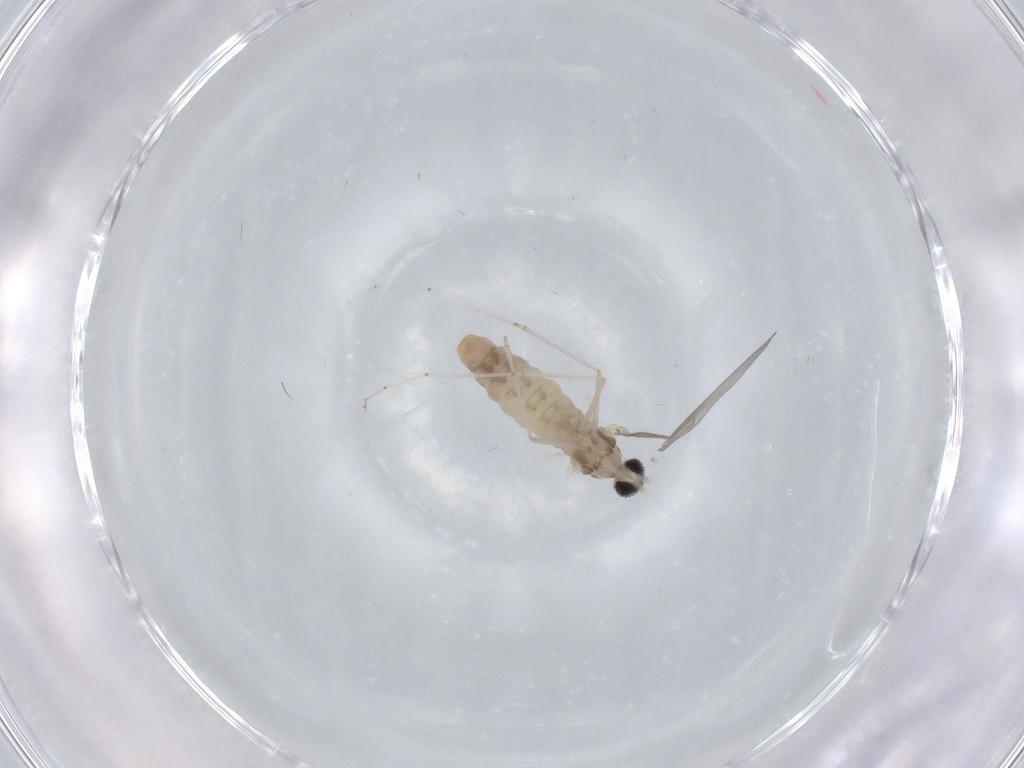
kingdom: Animalia
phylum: Arthropoda
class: Insecta
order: Diptera
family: Cecidomyiidae
